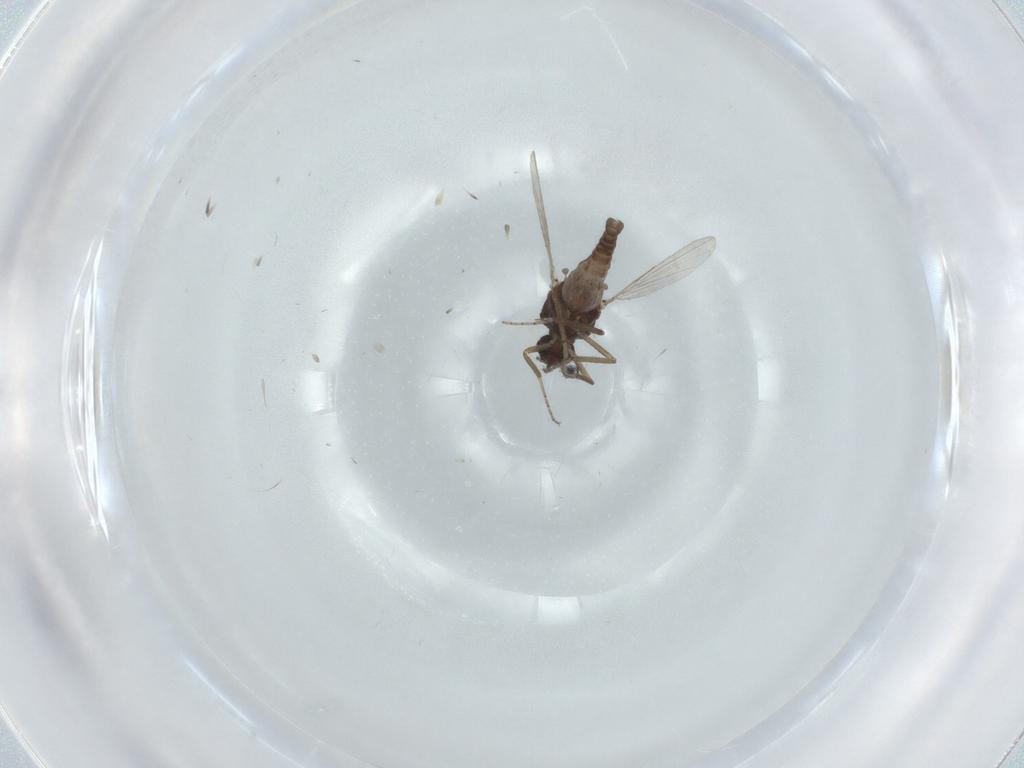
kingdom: Animalia
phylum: Arthropoda
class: Insecta
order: Diptera
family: Ceratopogonidae
